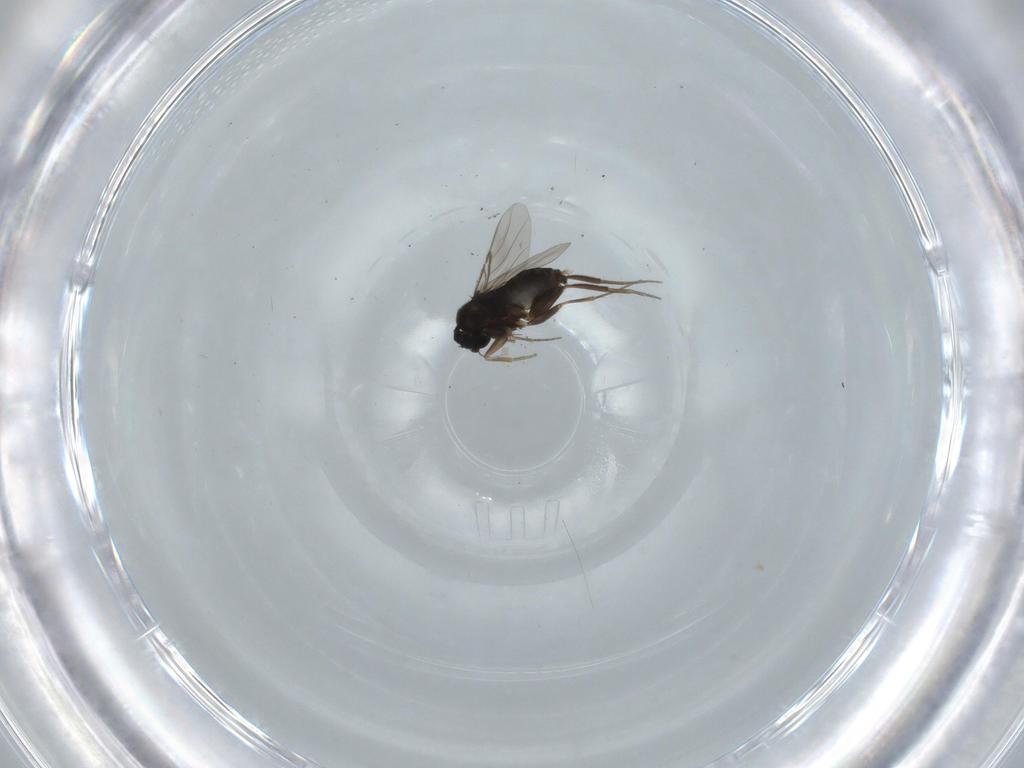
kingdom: Animalia
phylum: Arthropoda
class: Insecta
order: Diptera
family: Phoridae
